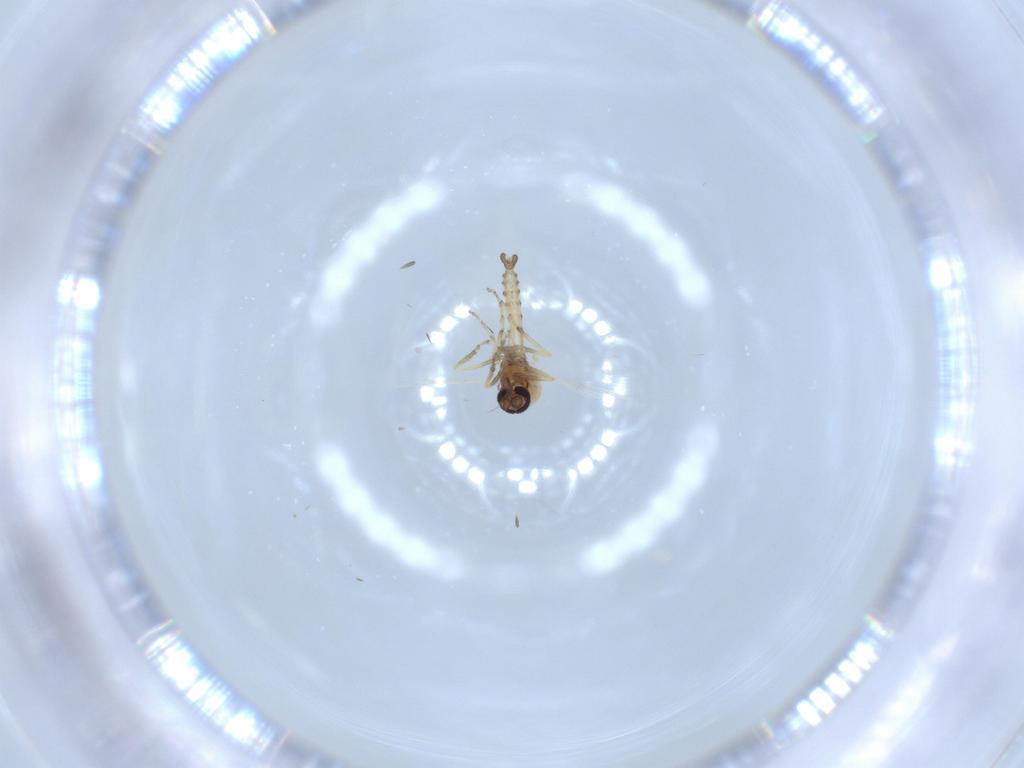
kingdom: Animalia
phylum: Arthropoda
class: Insecta
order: Diptera
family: Cecidomyiidae
